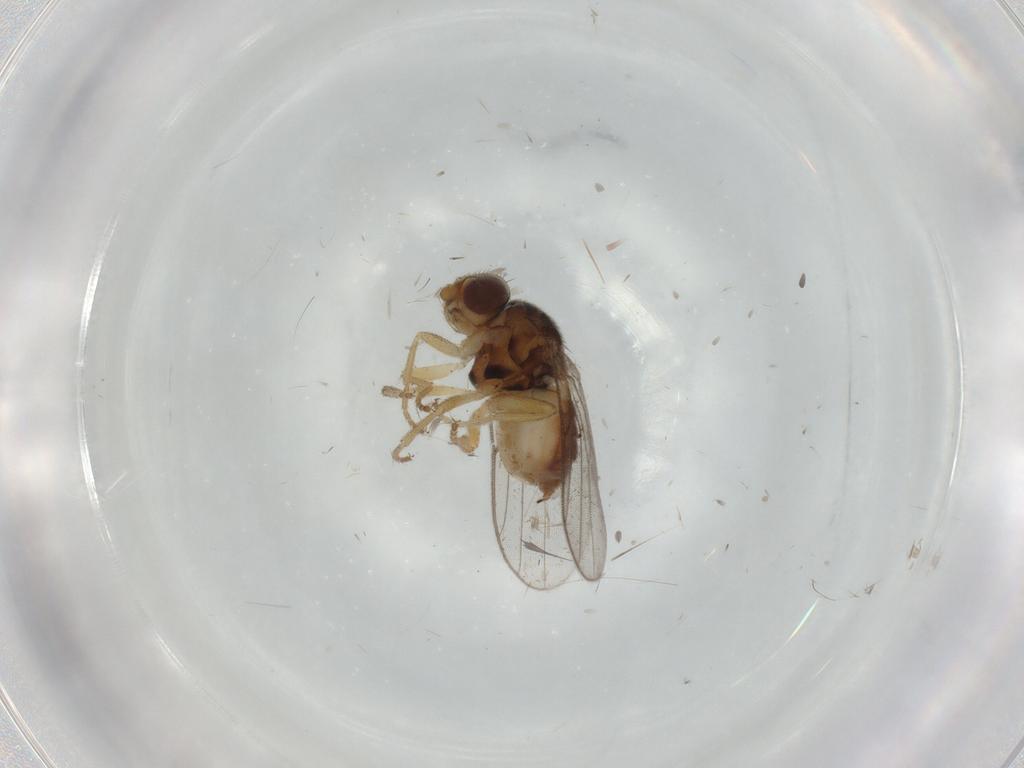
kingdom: Animalia
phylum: Arthropoda
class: Insecta
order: Diptera
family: Chloropidae
